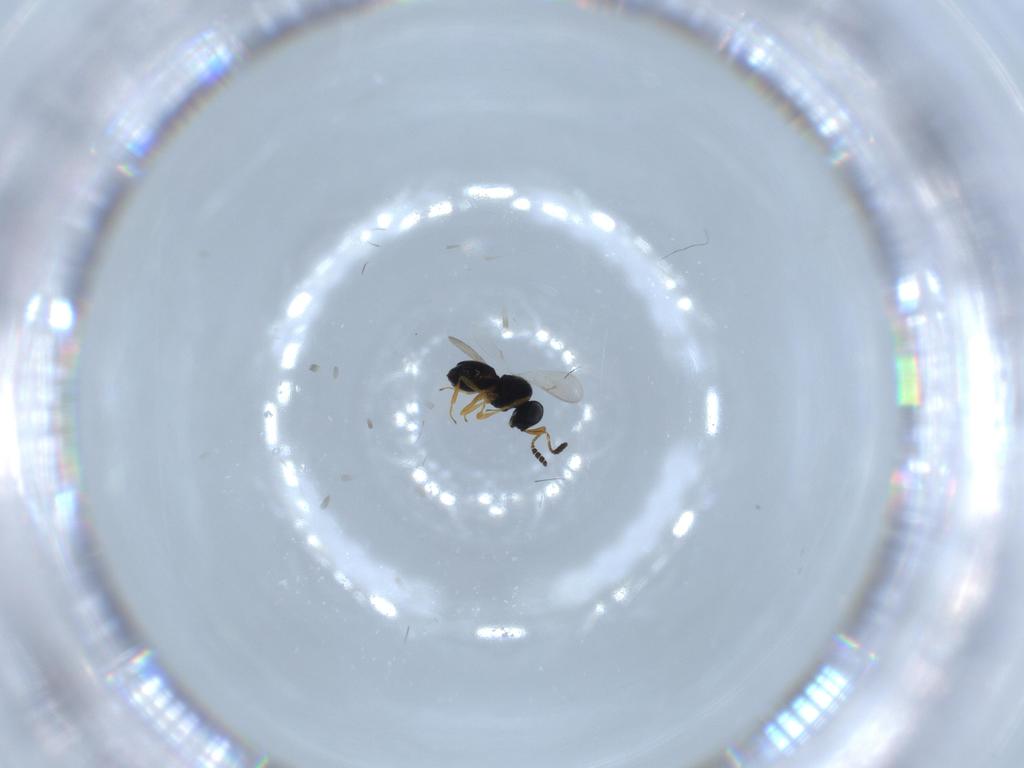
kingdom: Animalia
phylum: Arthropoda
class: Insecta
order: Hymenoptera
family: Scelionidae
